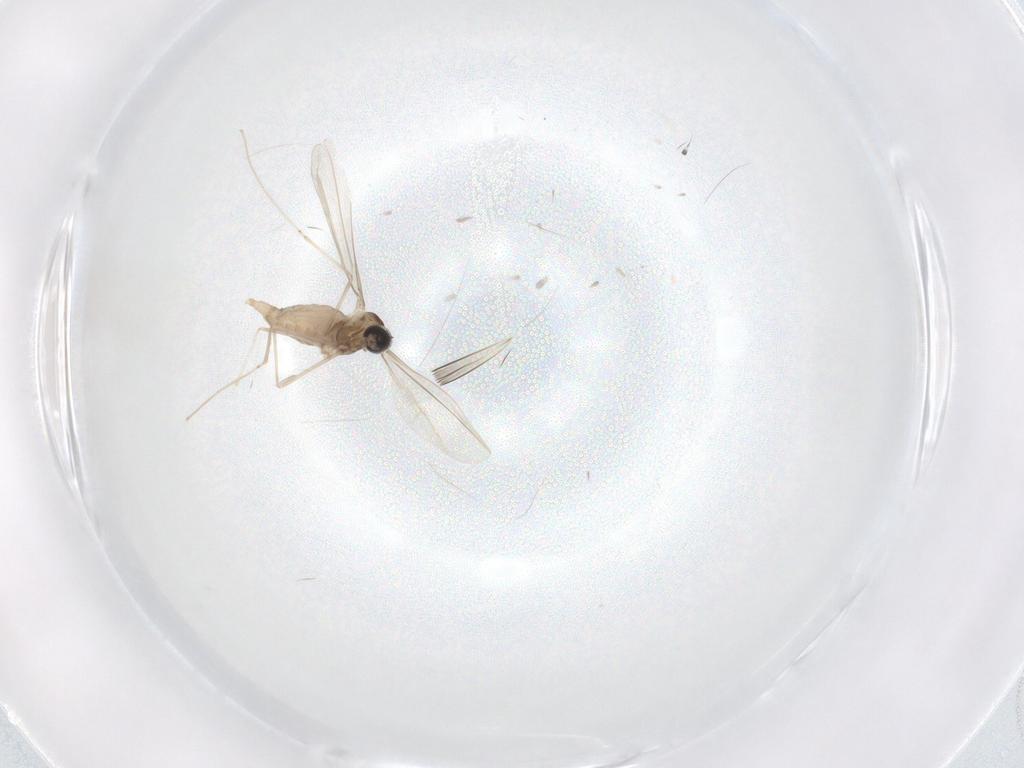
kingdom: Animalia
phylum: Arthropoda
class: Insecta
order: Diptera
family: Cecidomyiidae
